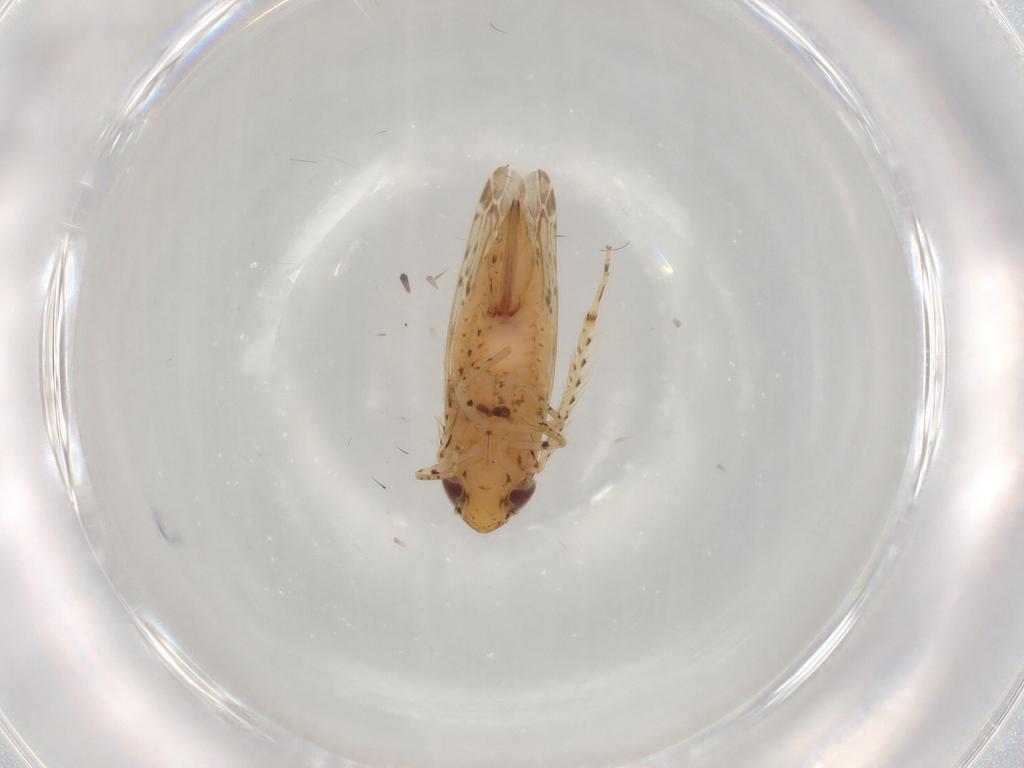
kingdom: Animalia
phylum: Arthropoda
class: Insecta
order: Hemiptera
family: Cicadellidae
